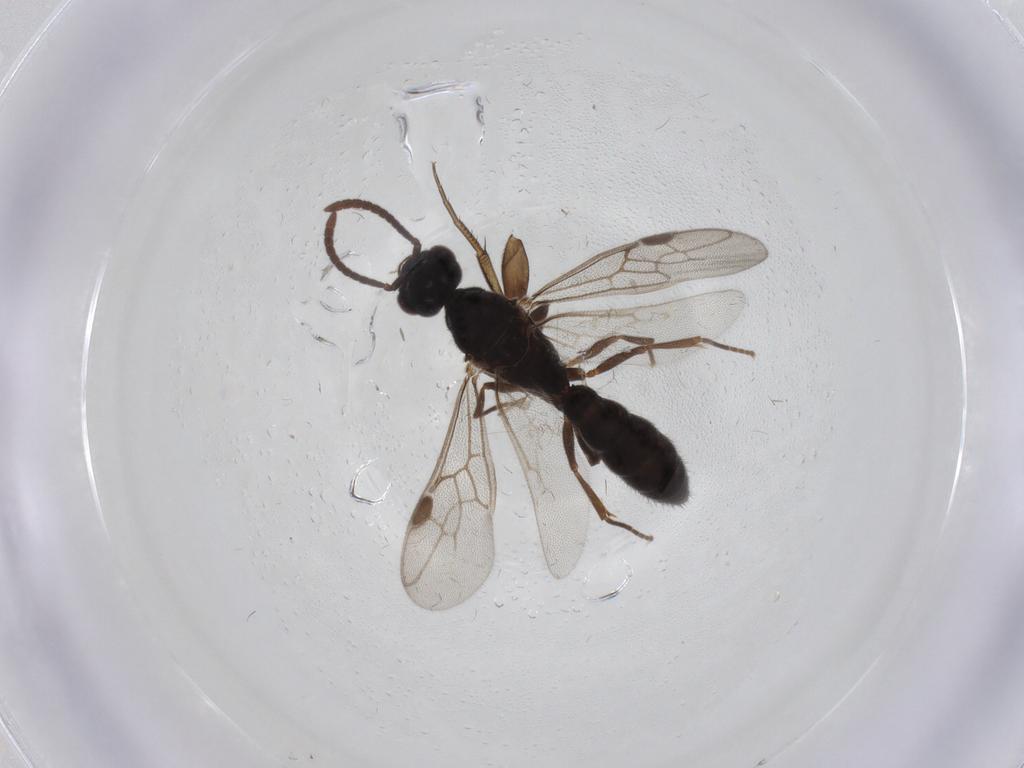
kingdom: Animalia
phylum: Arthropoda
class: Insecta
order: Hymenoptera
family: Formicidae
